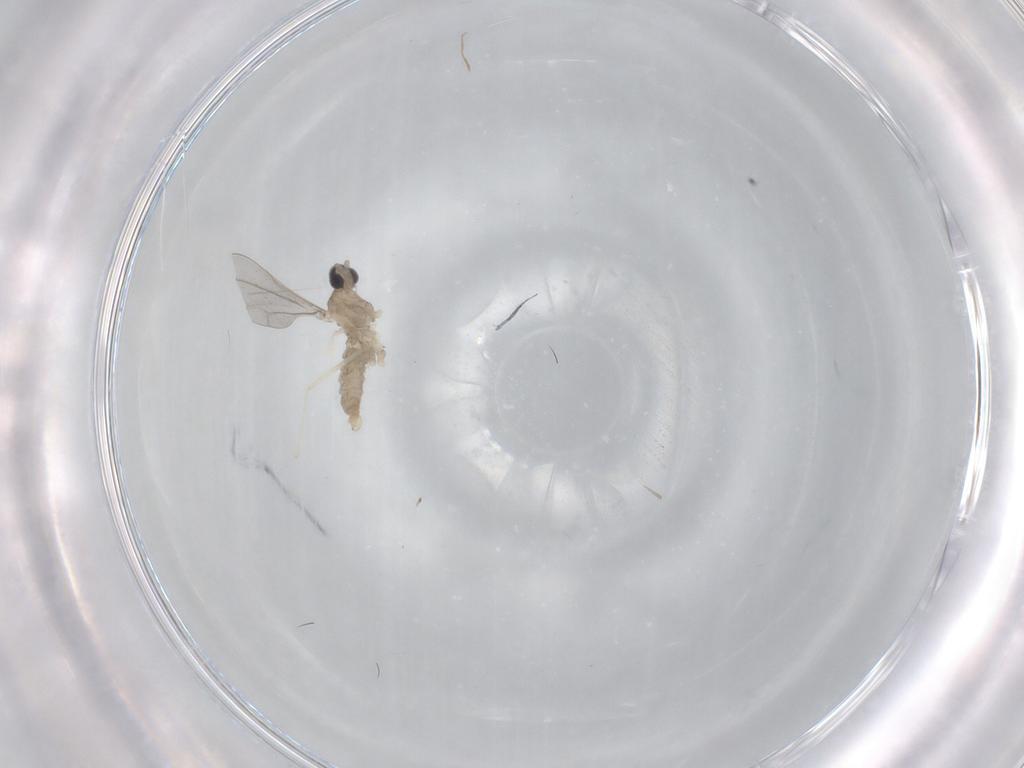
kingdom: Animalia
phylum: Arthropoda
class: Insecta
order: Diptera
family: Cecidomyiidae
